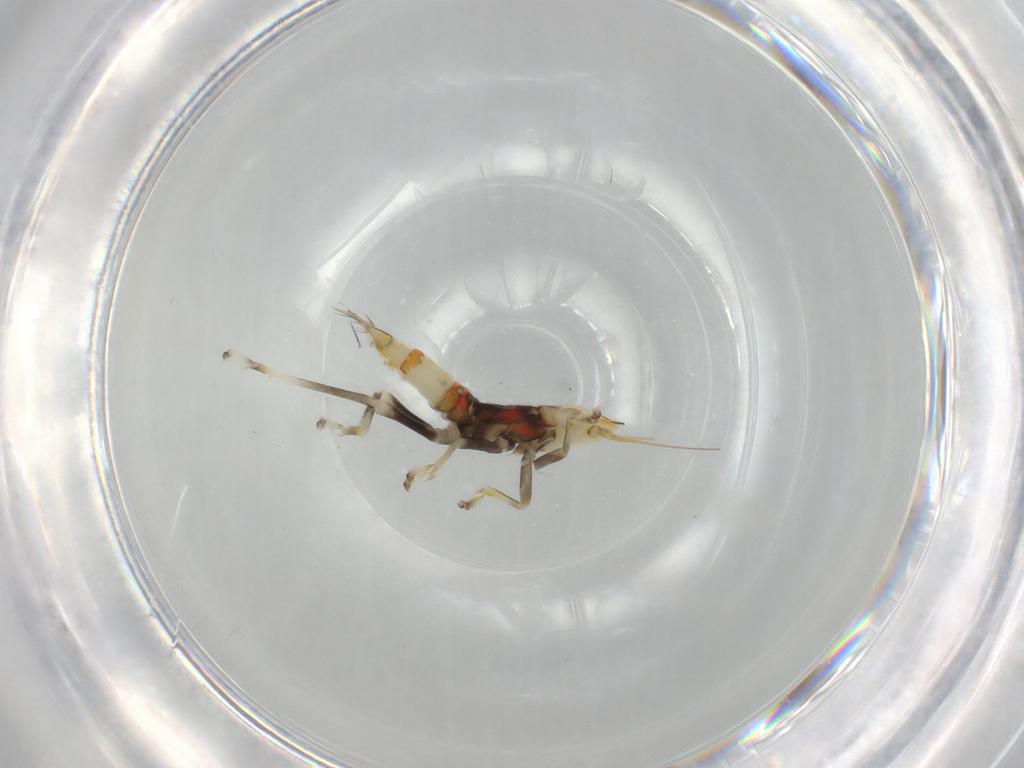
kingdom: Animalia
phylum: Arthropoda
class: Insecta
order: Hemiptera
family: Cicadellidae
